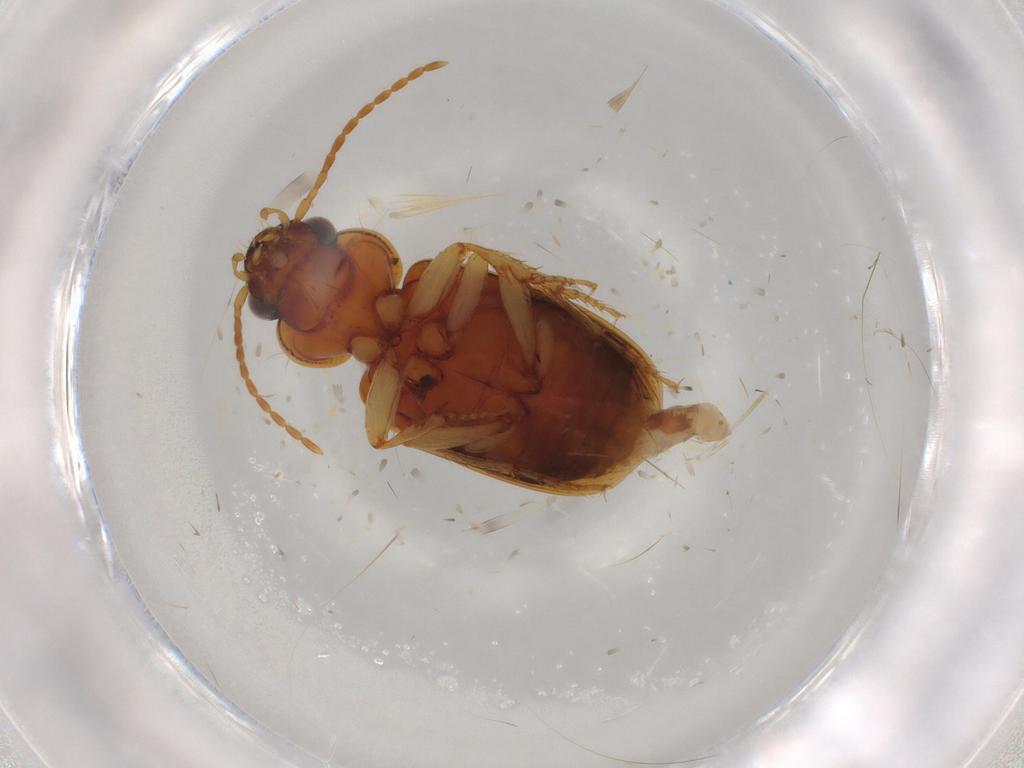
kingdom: Animalia
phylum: Arthropoda
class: Insecta
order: Coleoptera
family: Carabidae
